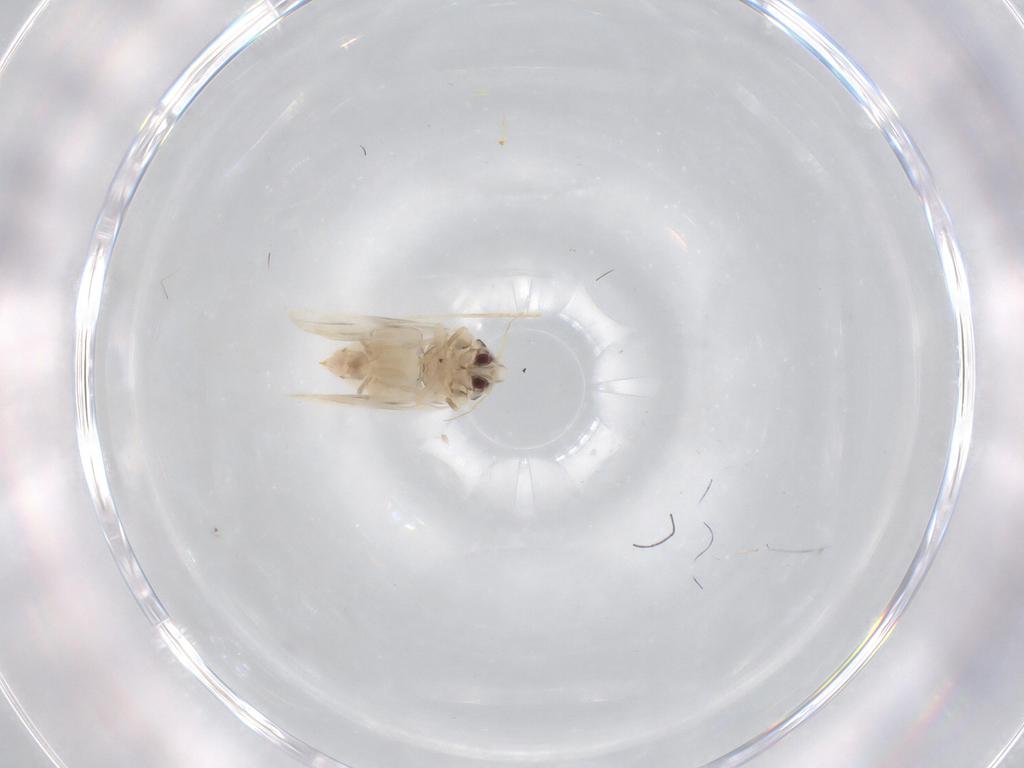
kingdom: Animalia
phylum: Arthropoda
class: Insecta
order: Hemiptera
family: Aleyrodidae
